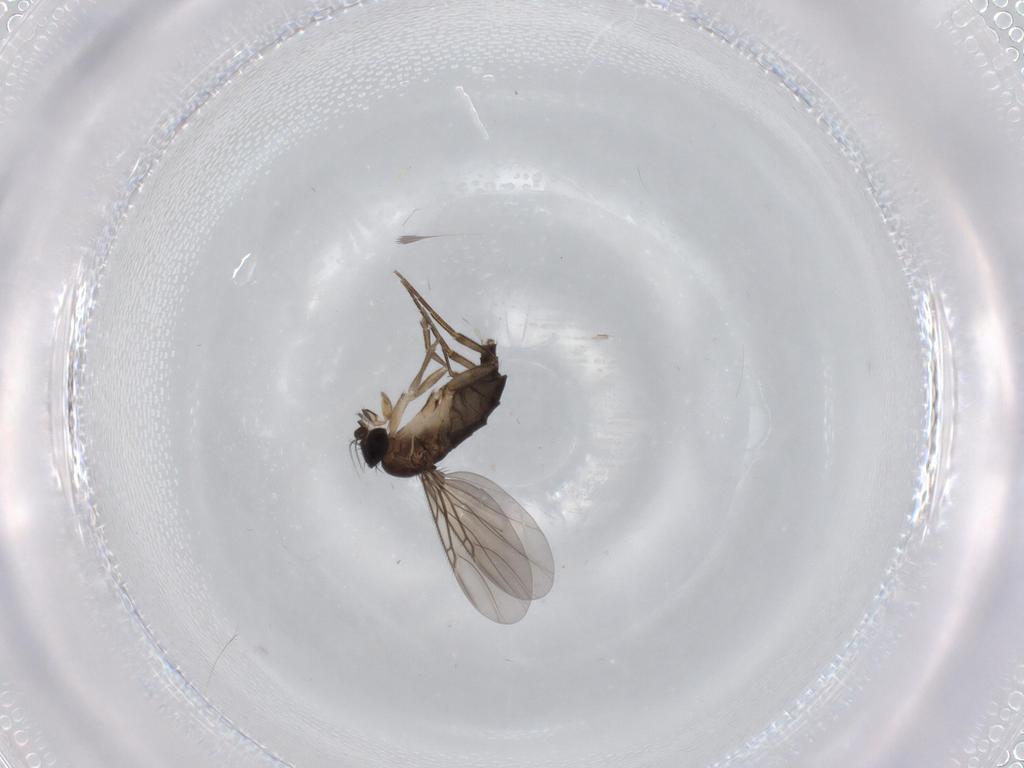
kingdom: Animalia
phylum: Arthropoda
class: Insecta
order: Diptera
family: Phoridae
